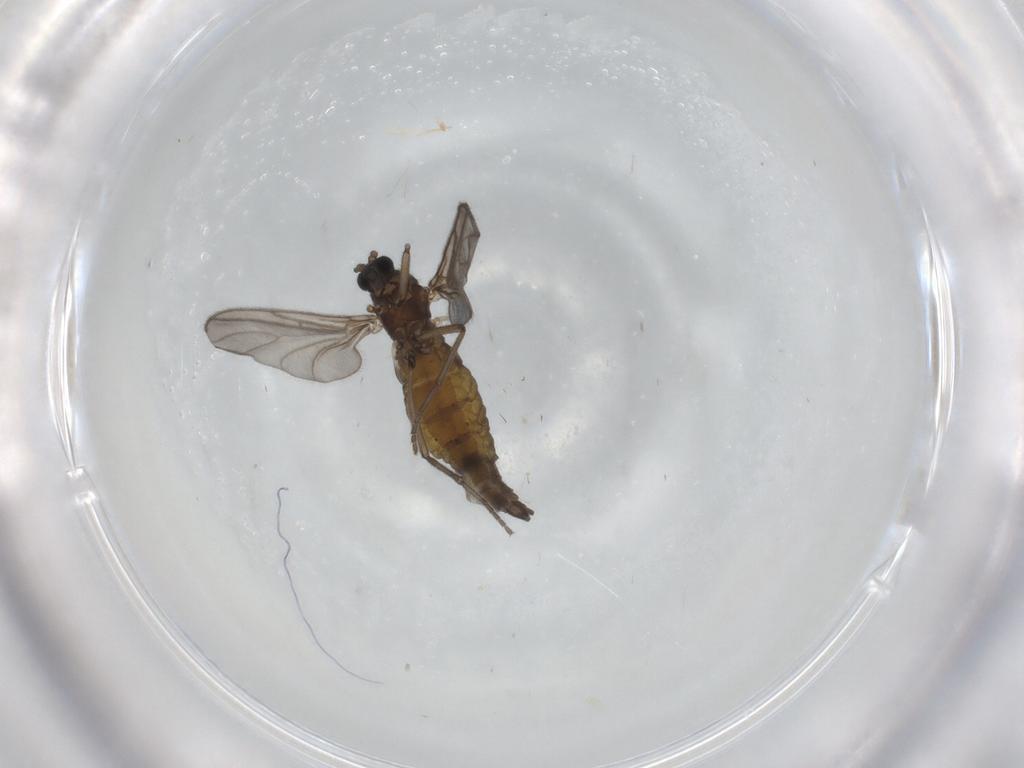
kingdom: Animalia
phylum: Arthropoda
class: Insecta
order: Diptera
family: Sciaridae
